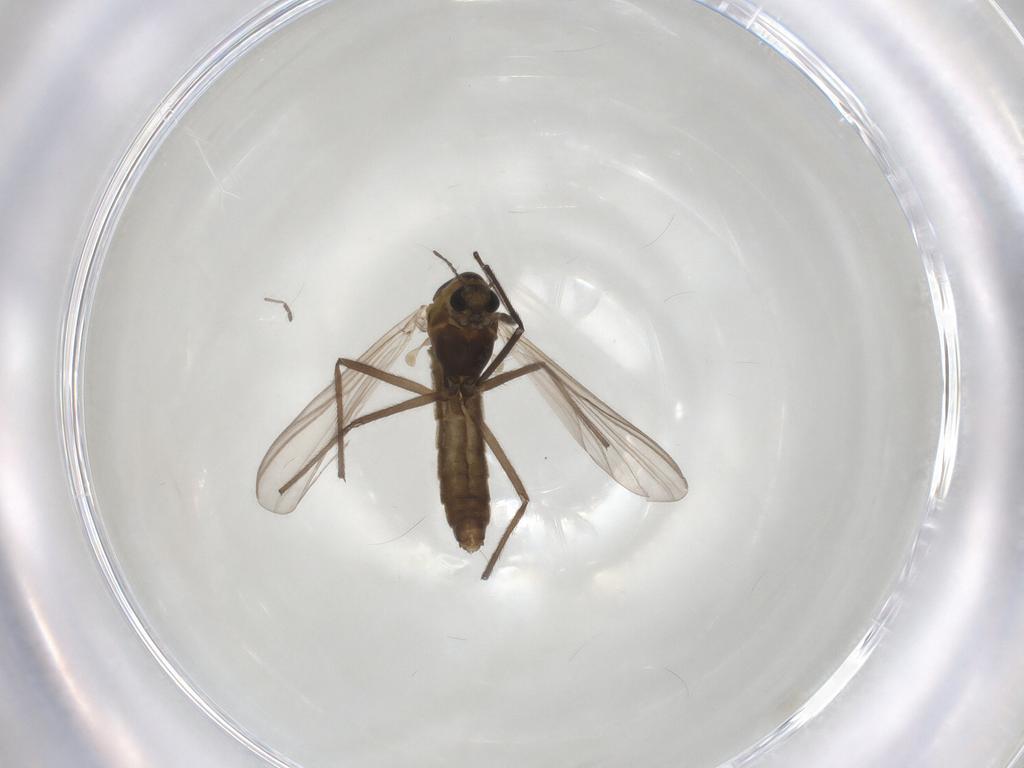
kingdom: Animalia
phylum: Arthropoda
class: Insecta
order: Diptera
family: Chironomidae
